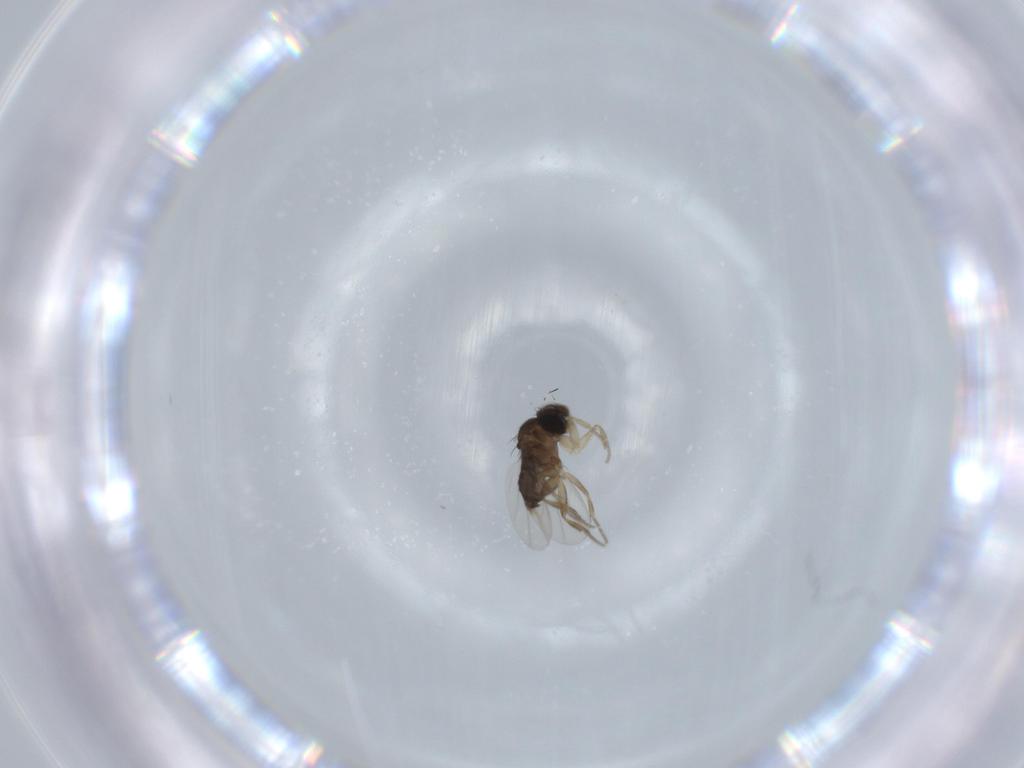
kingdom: Animalia
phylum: Arthropoda
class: Insecta
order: Diptera
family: Phoridae
